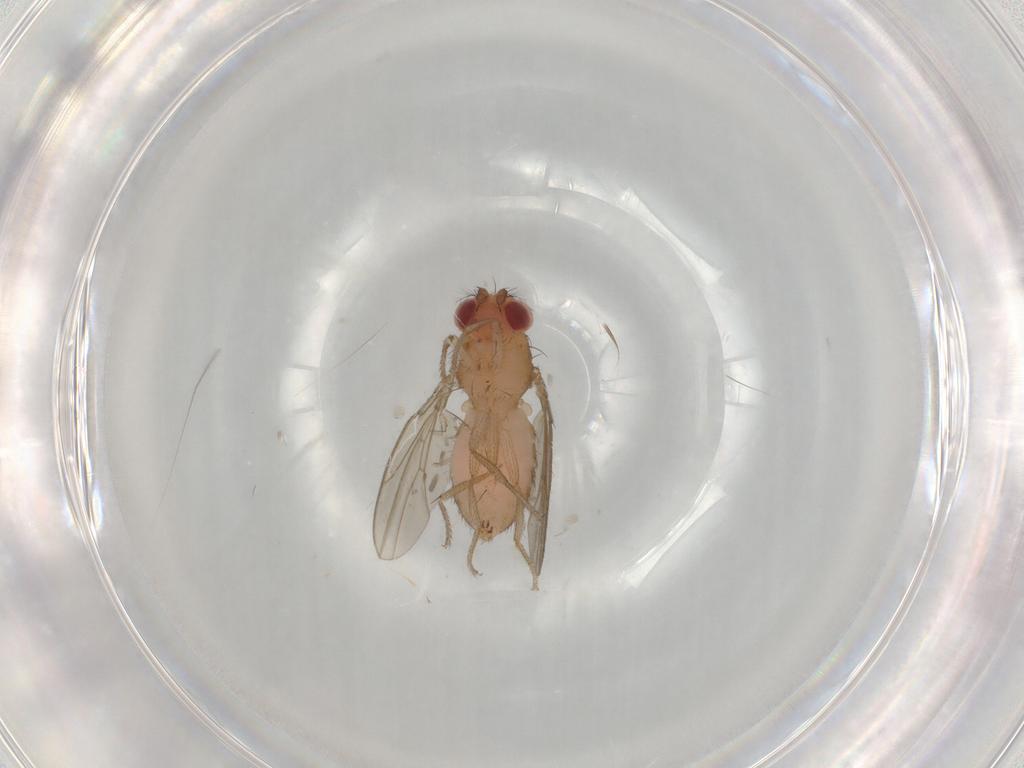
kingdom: Animalia
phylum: Arthropoda
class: Insecta
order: Diptera
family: Drosophilidae
